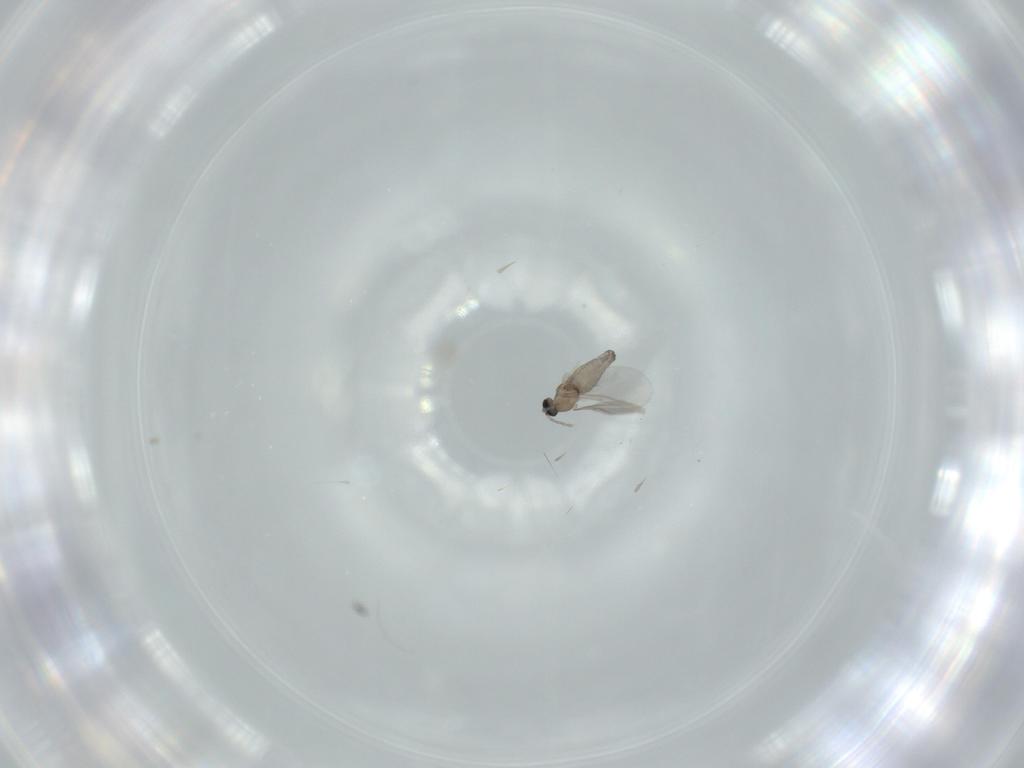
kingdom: Animalia
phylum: Arthropoda
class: Insecta
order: Diptera
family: Cecidomyiidae
